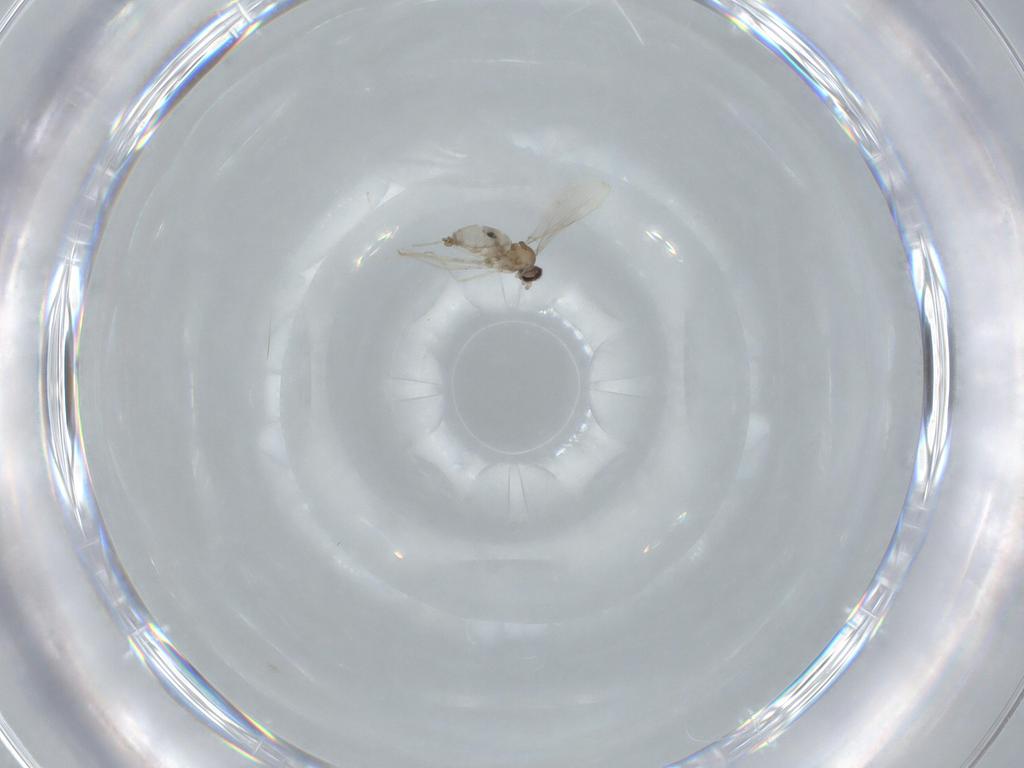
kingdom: Animalia
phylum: Arthropoda
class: Insecta
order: Diptera
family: Cecidomyiidae
